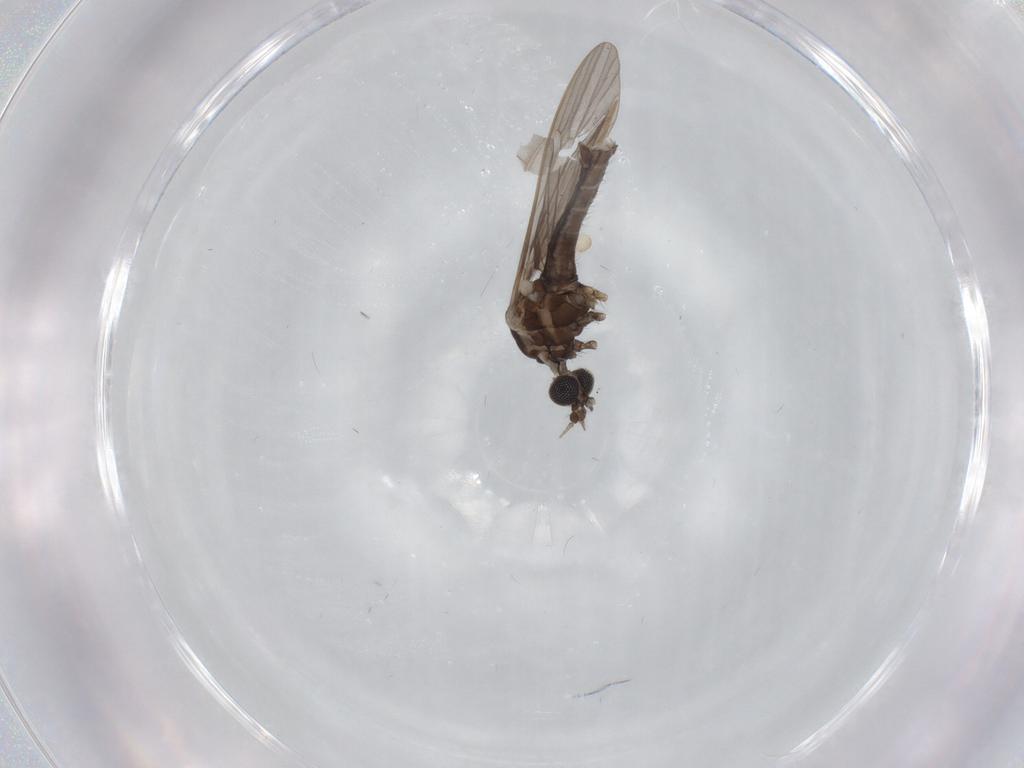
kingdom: Animalia
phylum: Arthropoda
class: Insecta
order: Diptera
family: Limoniidae
